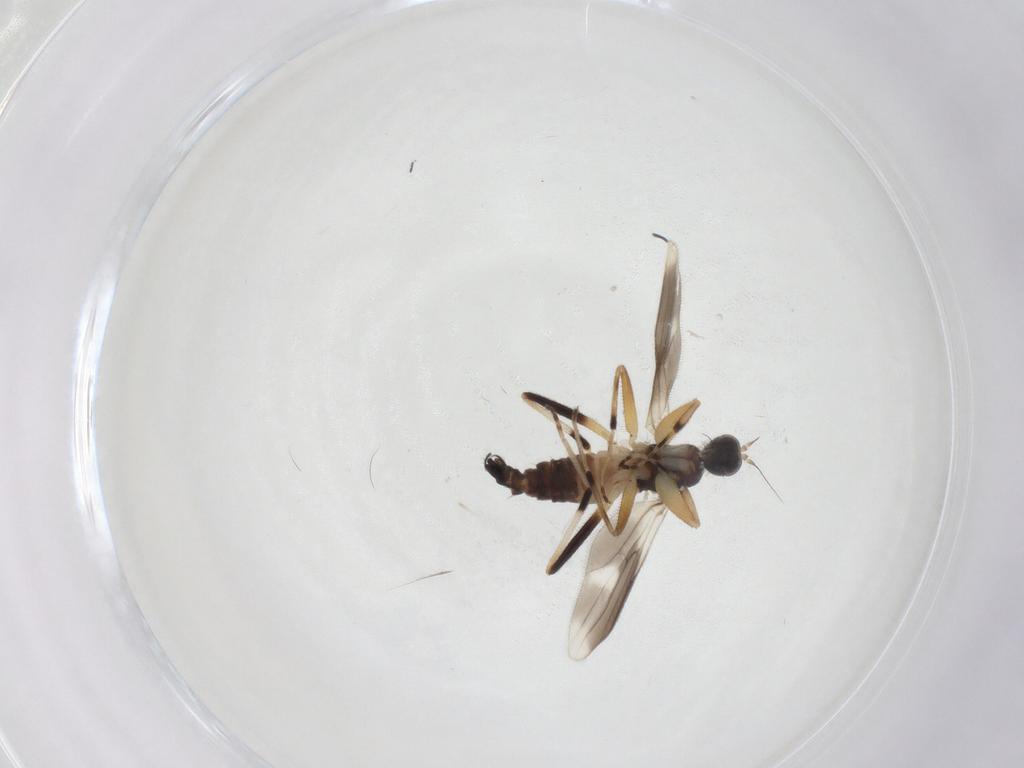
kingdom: Animalia
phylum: Arthropoda
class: Insecta
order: Diptera
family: Hybotidae
